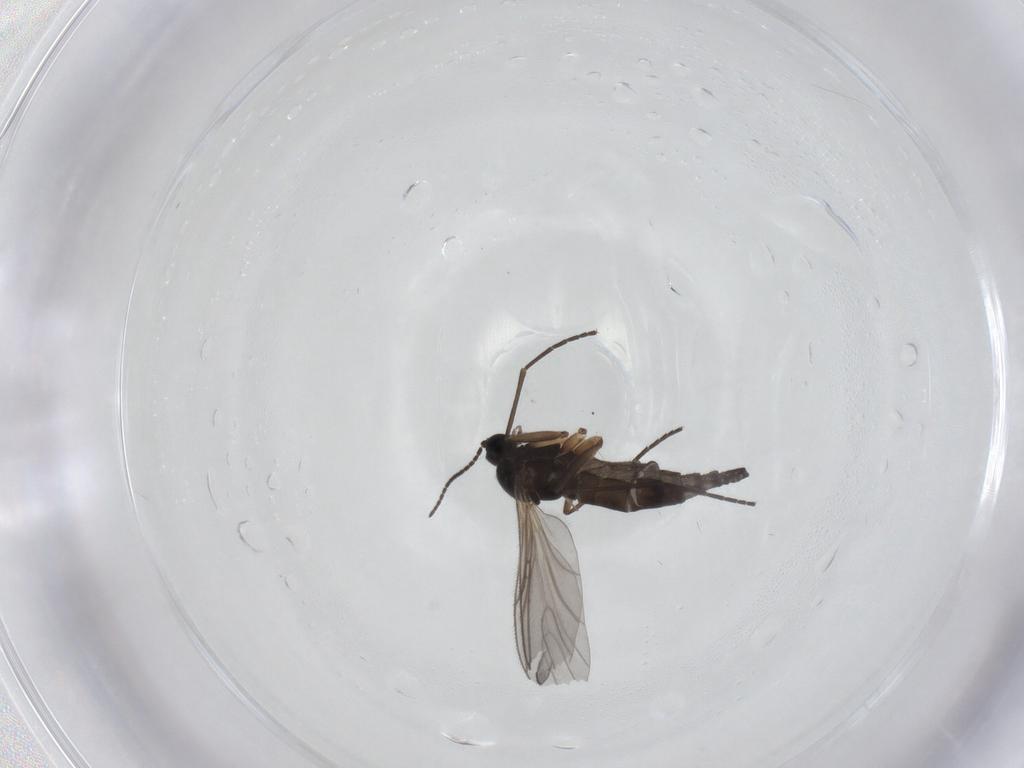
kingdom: Animalia
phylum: Arthropoda
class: Insecta
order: Diptera
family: Sciaridae
